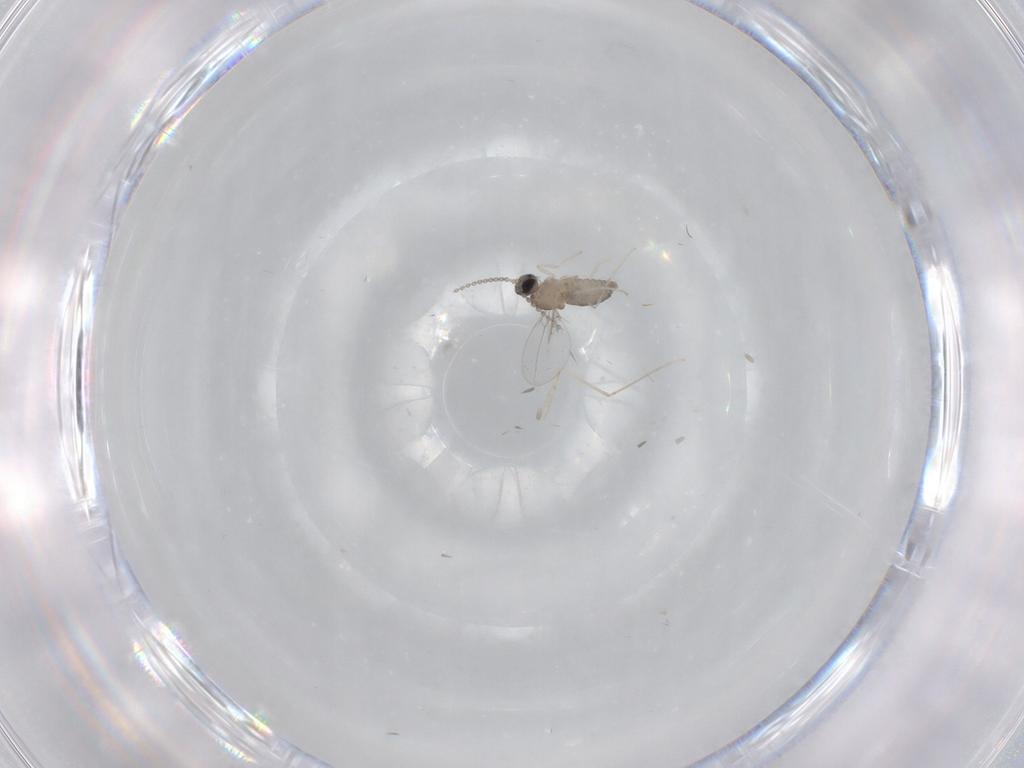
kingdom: Animalia
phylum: Arthropoda
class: Insecta
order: Diptera
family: Cecidomyiidae
